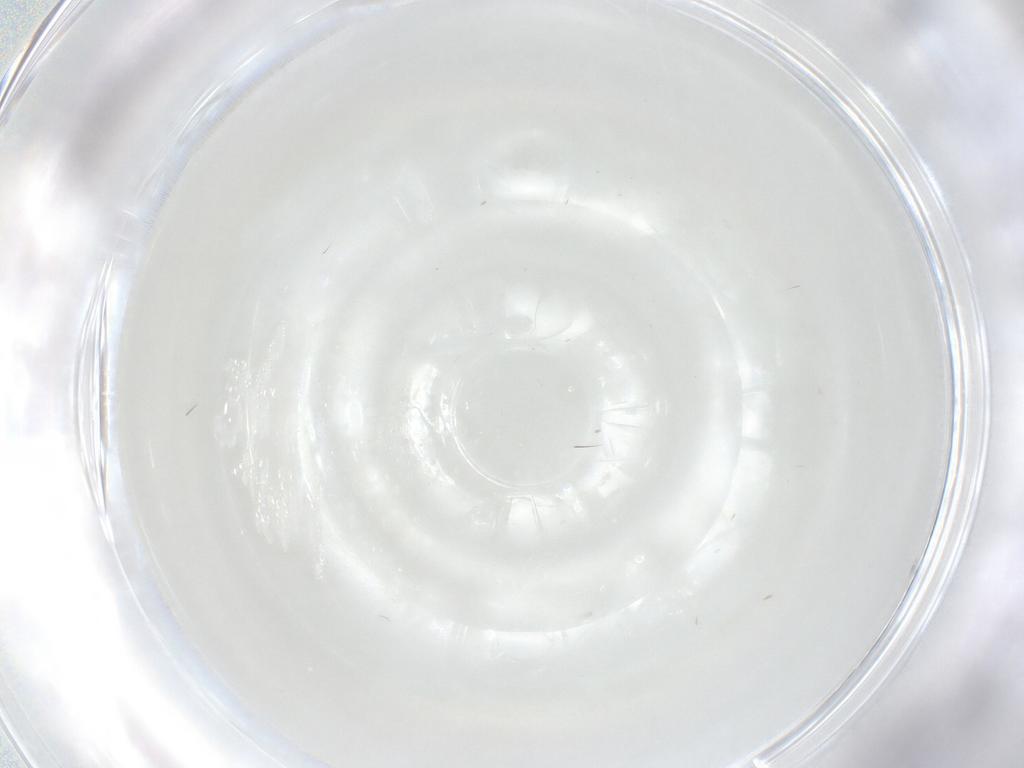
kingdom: Animalia
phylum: Arthropoda
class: Insecta
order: Diptera
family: Psychodidae
